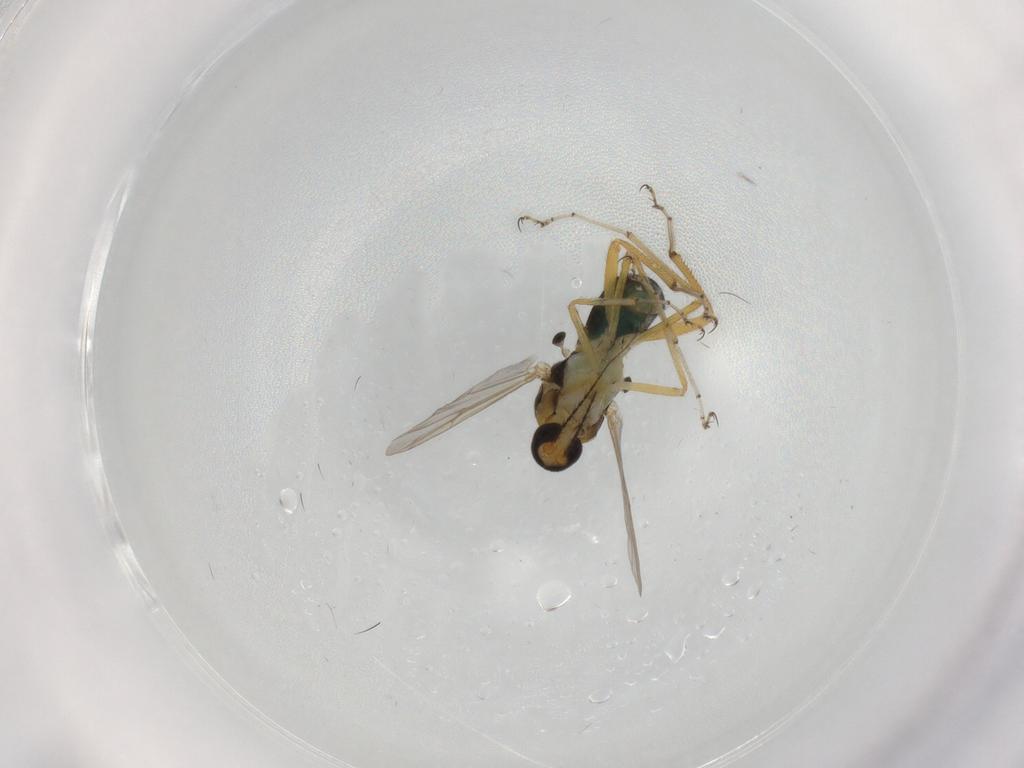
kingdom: Animalia
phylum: Arthropoda
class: Insecta
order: Diptera
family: Ceratopogonidae
